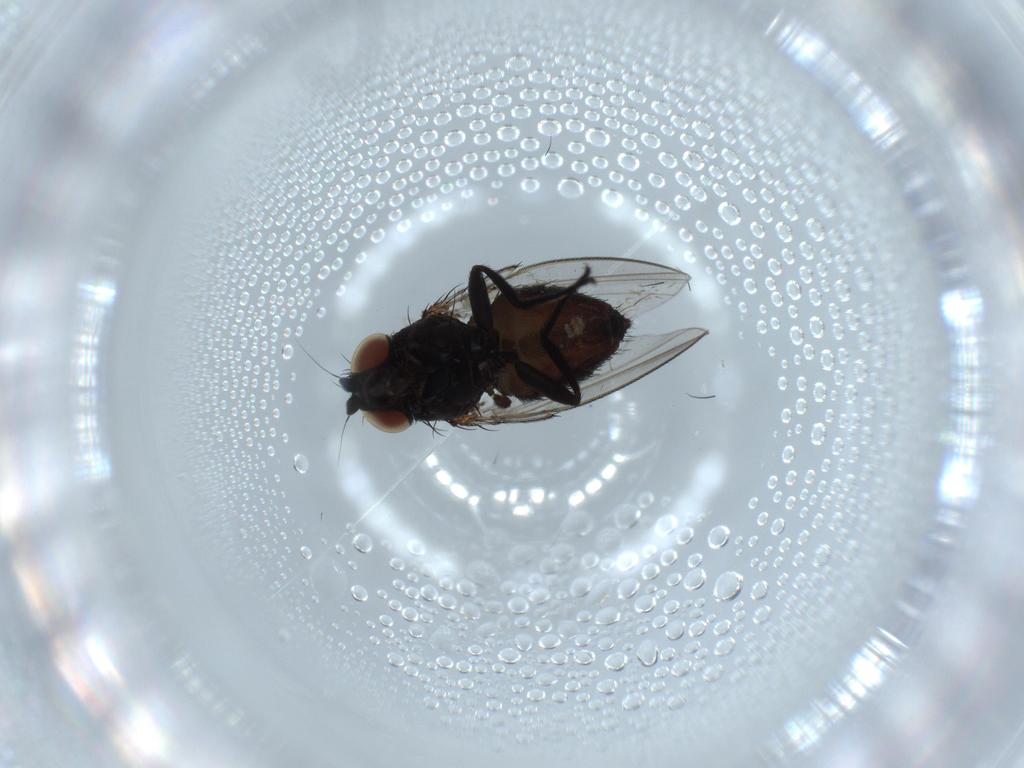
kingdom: Animalia
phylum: Arthropoda
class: Insecta
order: Diptera
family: Milichiidae
